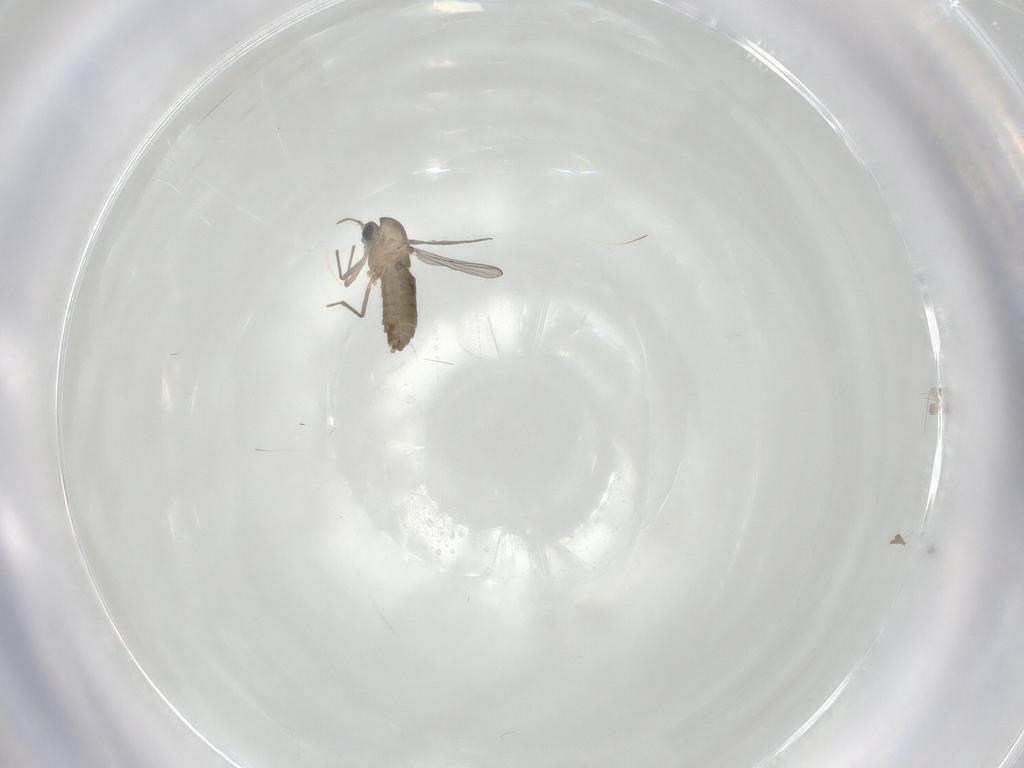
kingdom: Animalia
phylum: Arthropoda
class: Insecta
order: Diptera
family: Chironomidae
